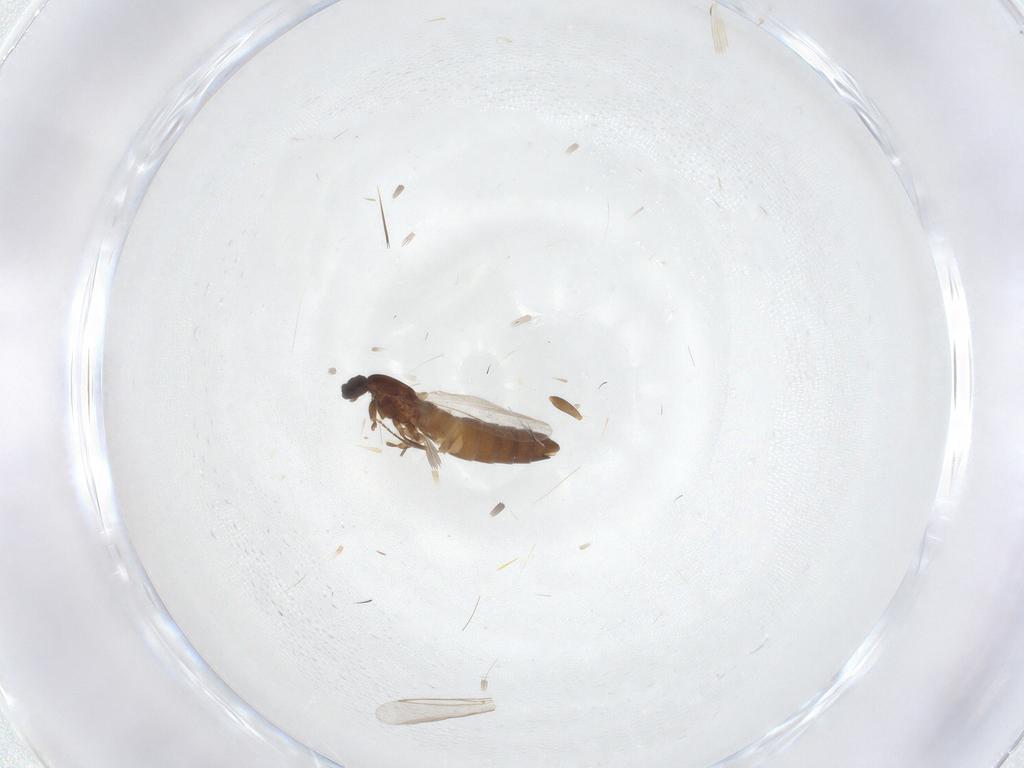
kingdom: Animalia
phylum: Arthropoda
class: Insecta
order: Diptera
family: Scatopsidae
